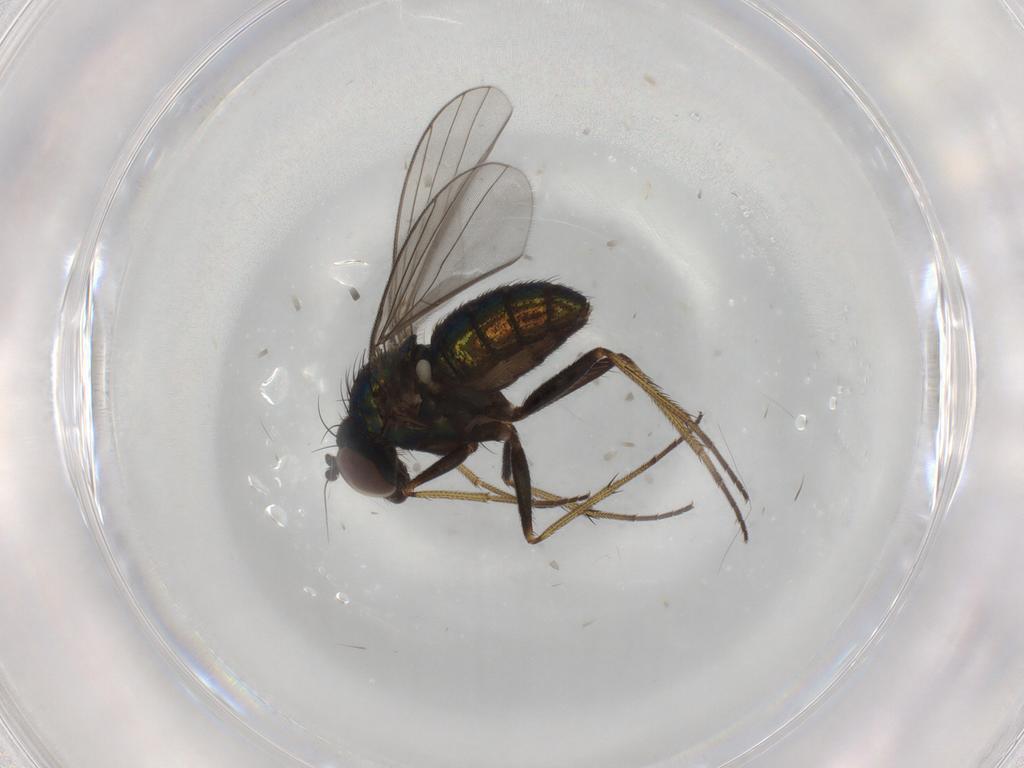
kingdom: Animalia
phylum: Arthropoda
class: Insecta
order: Diptera
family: Dolichopodidae
